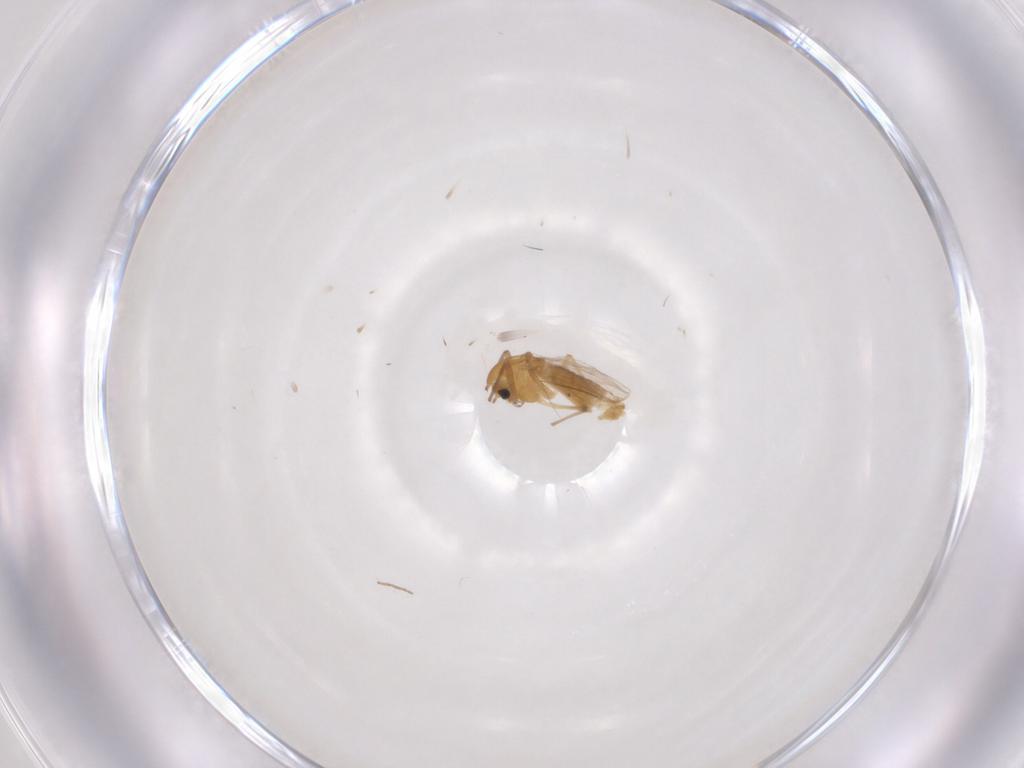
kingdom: Animalia
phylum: Arthropoda
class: Insecta
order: Diptera
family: Chironomidae
